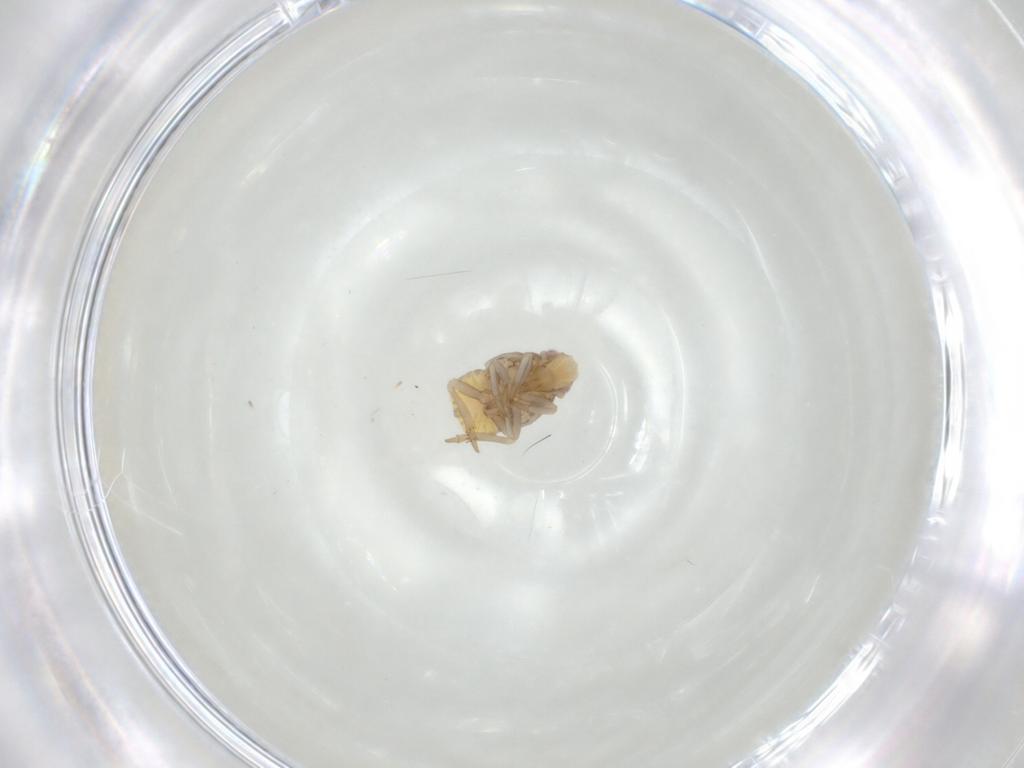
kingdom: Animalia
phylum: Arthropoda
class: Insecta
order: Hemiptera
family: Flatidae
